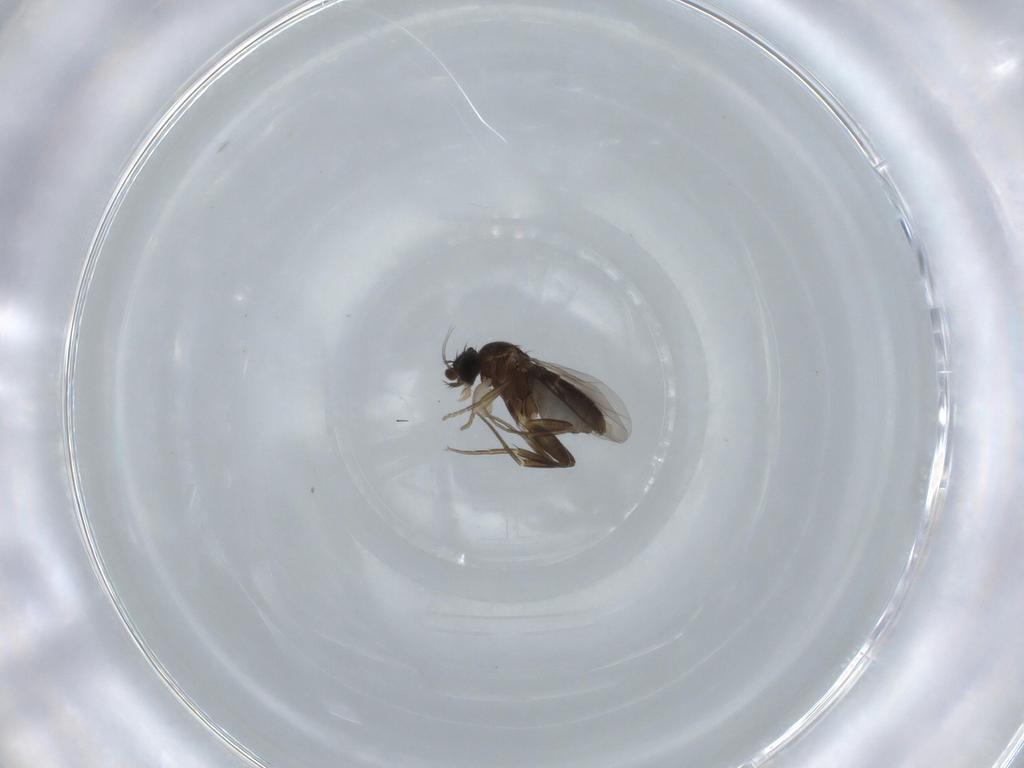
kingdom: Animalia
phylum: Arthropoda
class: Insecta
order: Diptera
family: Phoridae
